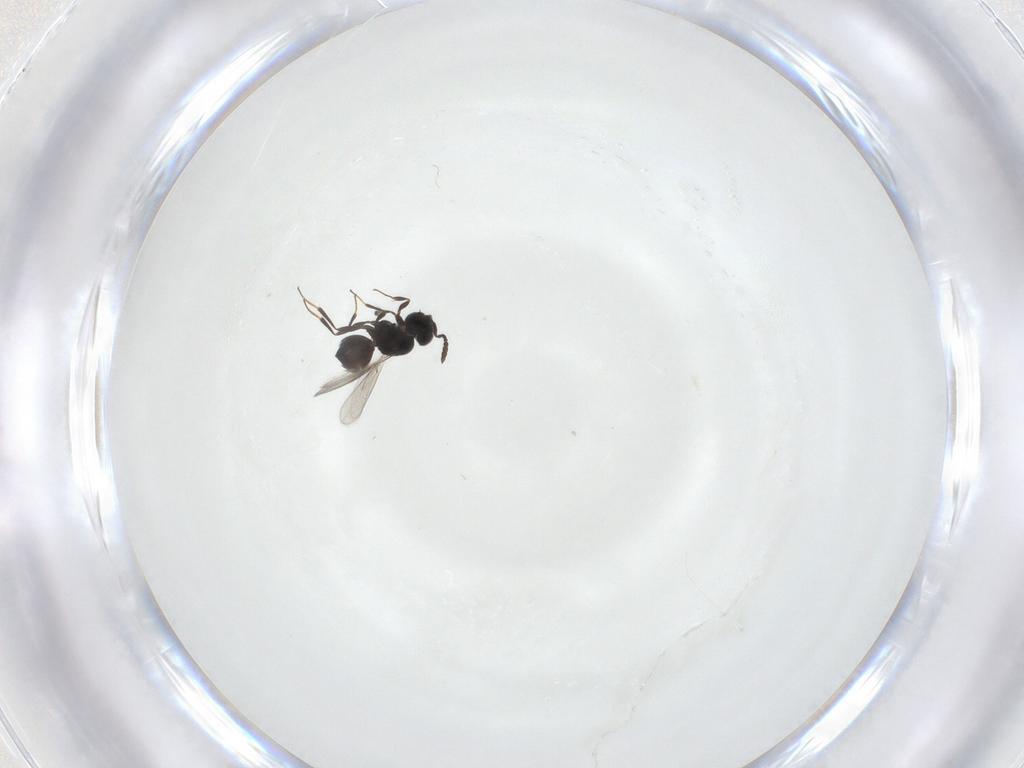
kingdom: Animalia
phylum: Arthropoda
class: Insecta
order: Hymenoptera
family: Scelionidae
